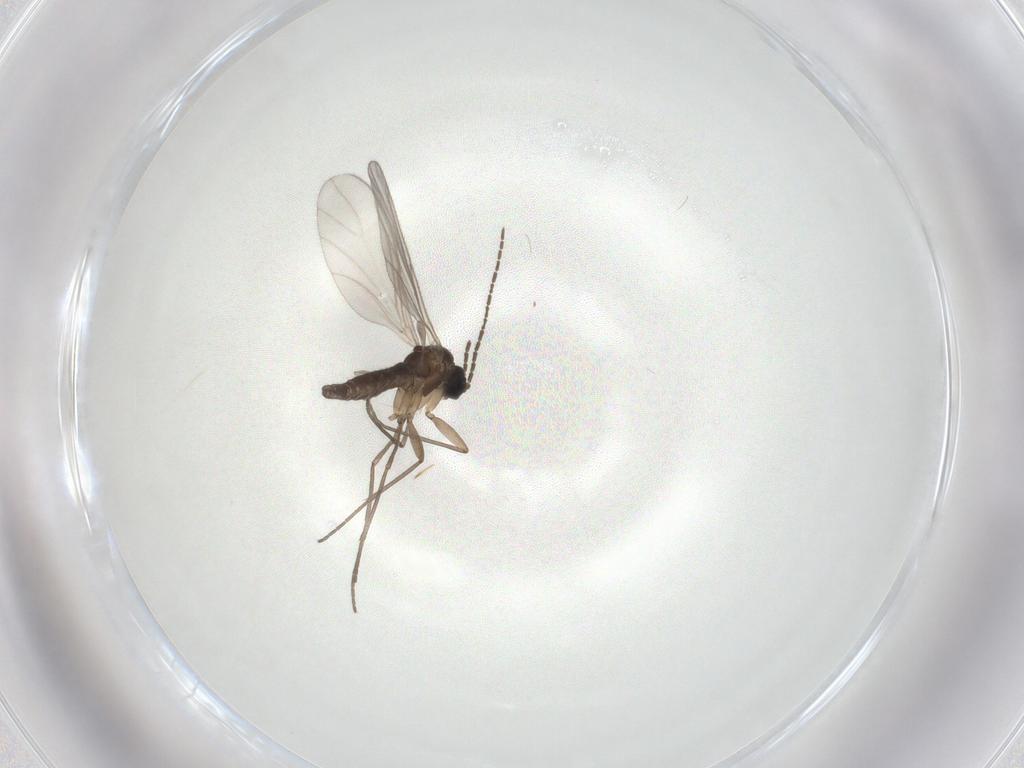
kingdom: Animalia
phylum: Arthropoda
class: Insecta
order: Diptera
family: Sciaridae
